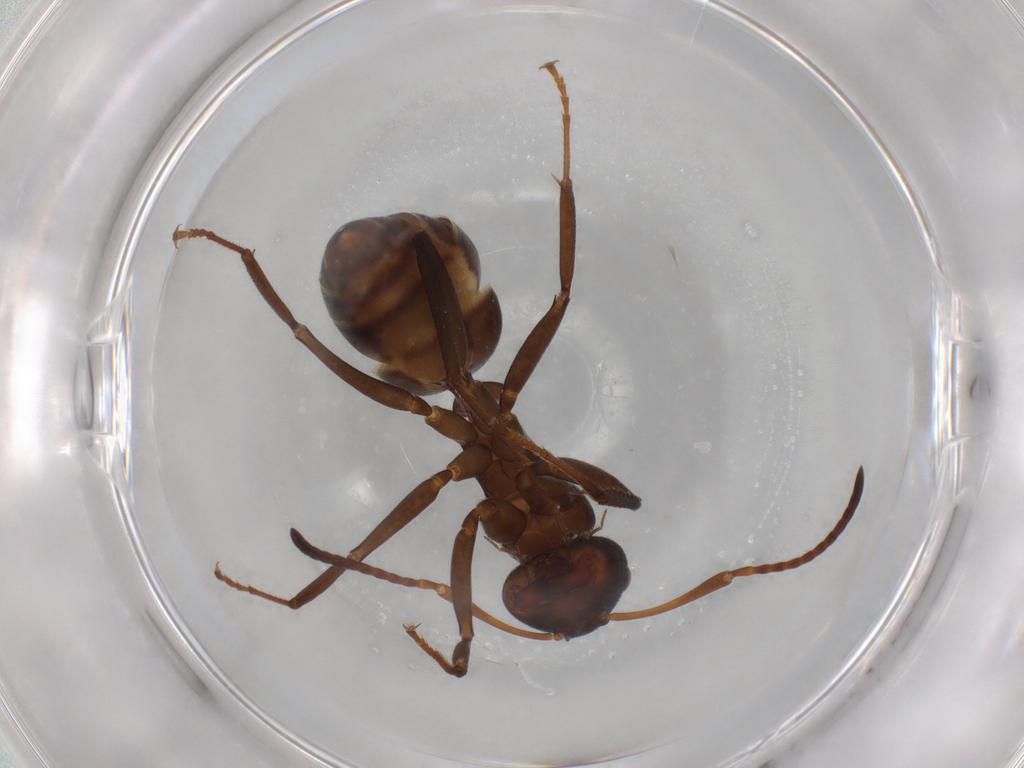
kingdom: Animalia
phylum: Arthropoda
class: Insecta
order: Hymenoptera
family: Formicidae
